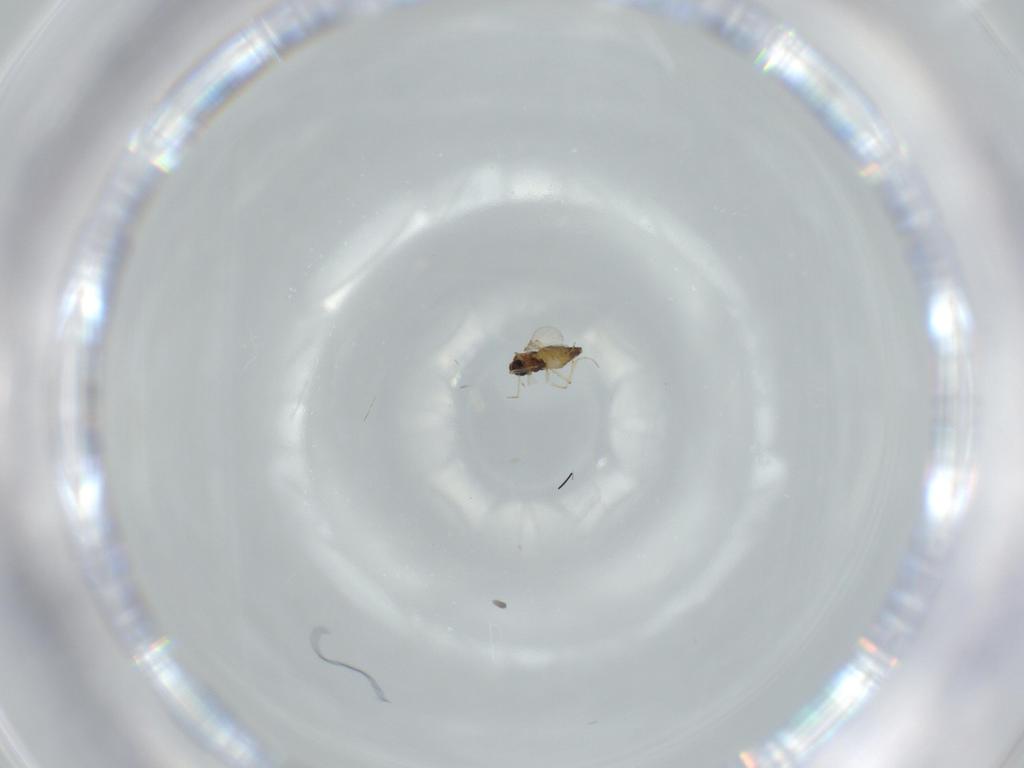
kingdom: Animalia
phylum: Arthropoda
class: Insecta
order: Diptera
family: Chironomidae
